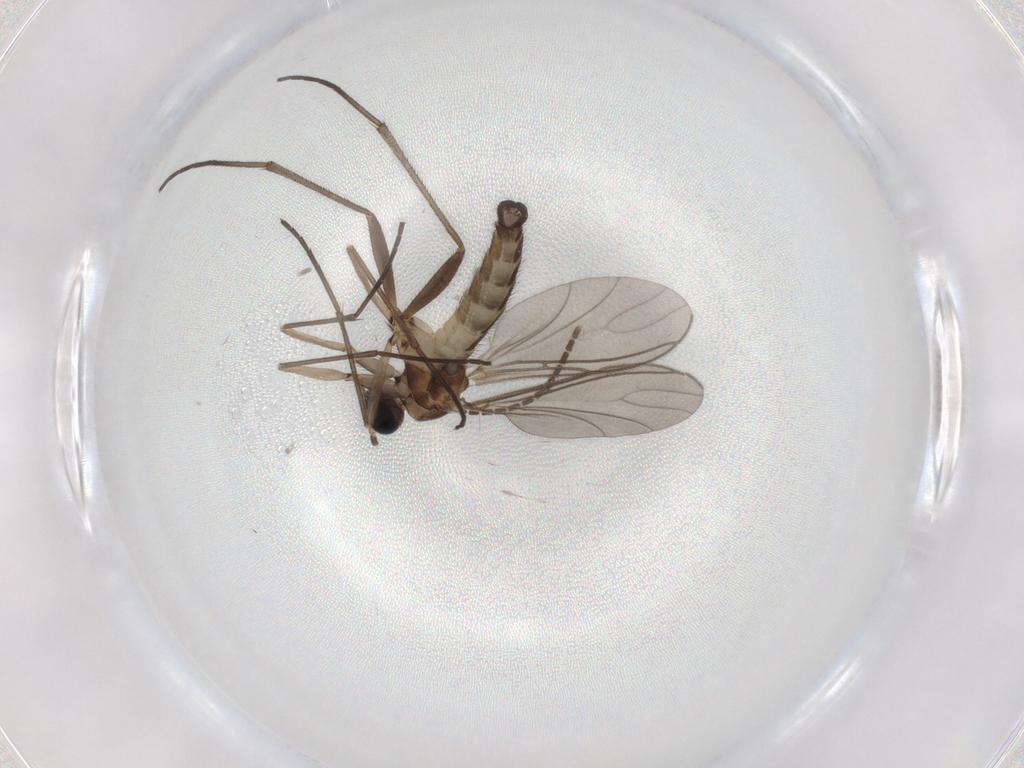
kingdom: Animalia
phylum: Arthropoda
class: Insecta
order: Diptera
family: Sciaridae
